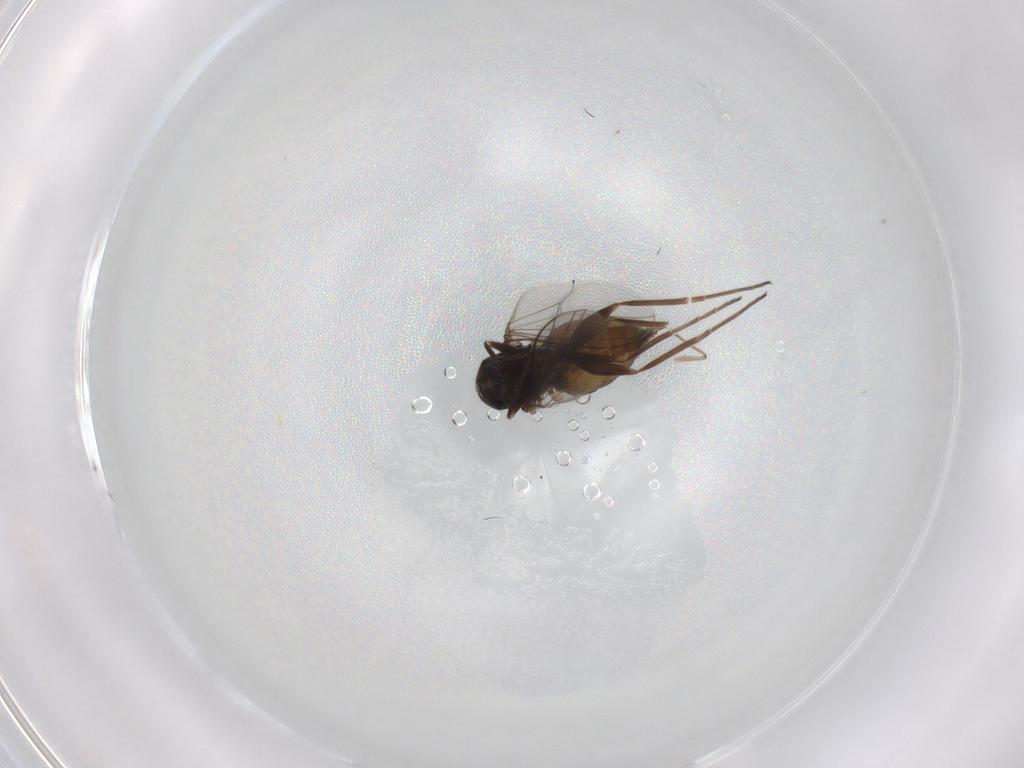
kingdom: Animalia
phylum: Arthropoda
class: Insecta
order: Diptera
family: Dolichopodidae
